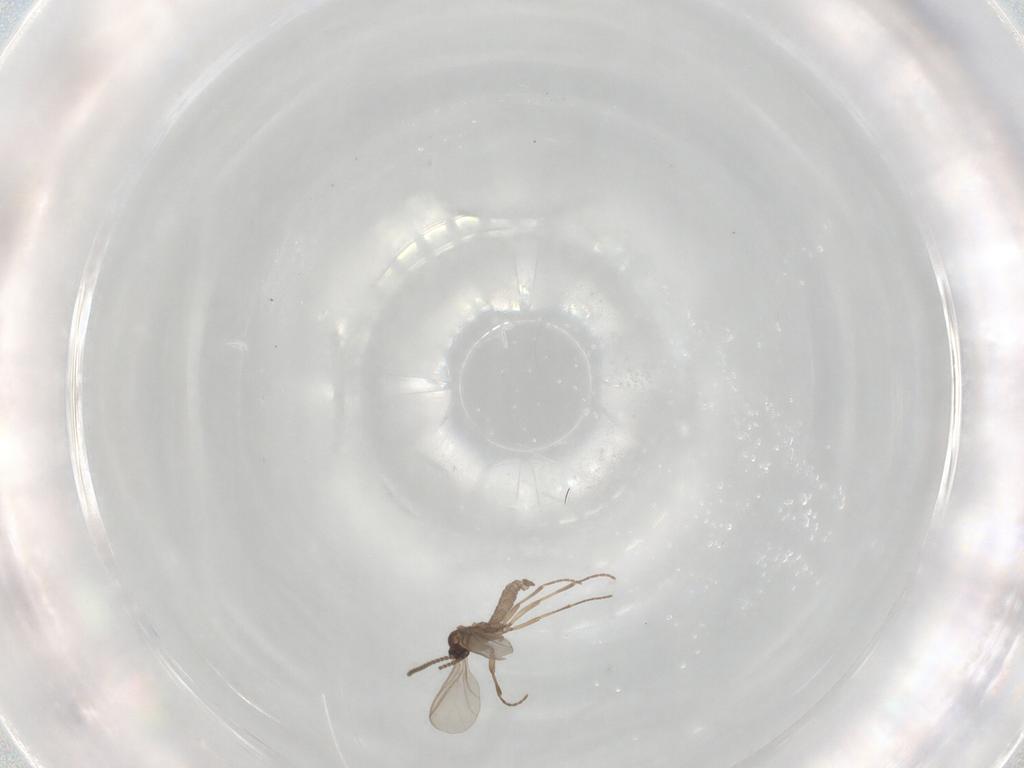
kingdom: Animalia
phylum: Arthropoda
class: Insecta
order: Diptera
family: Sciaridae
